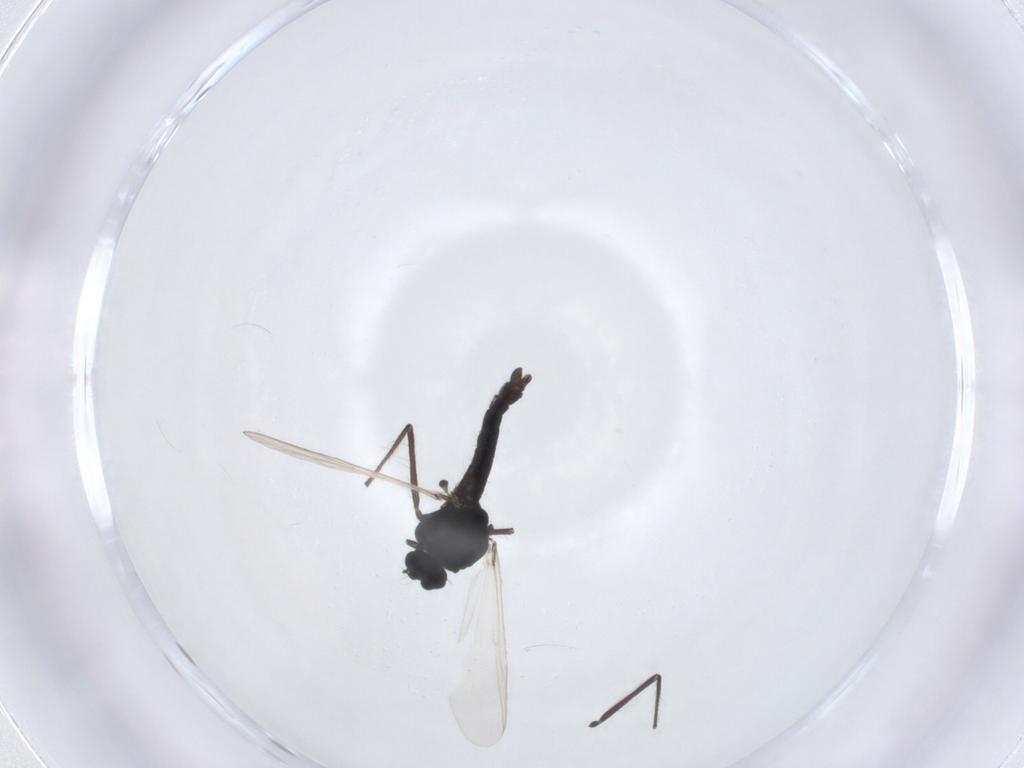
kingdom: Animalia
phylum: Arthropoda
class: Insecta
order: Diptera
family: Chironomidae
